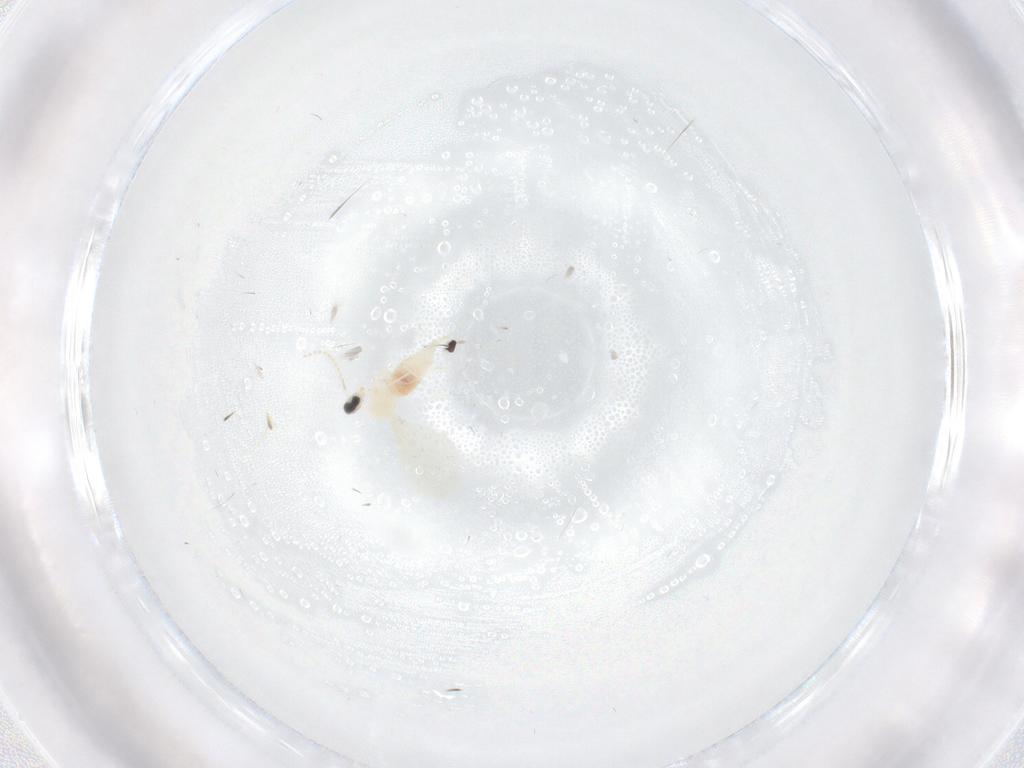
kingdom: Animalia
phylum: Arthropoda
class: Insecta
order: Diptera
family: Cecidomyiidae
